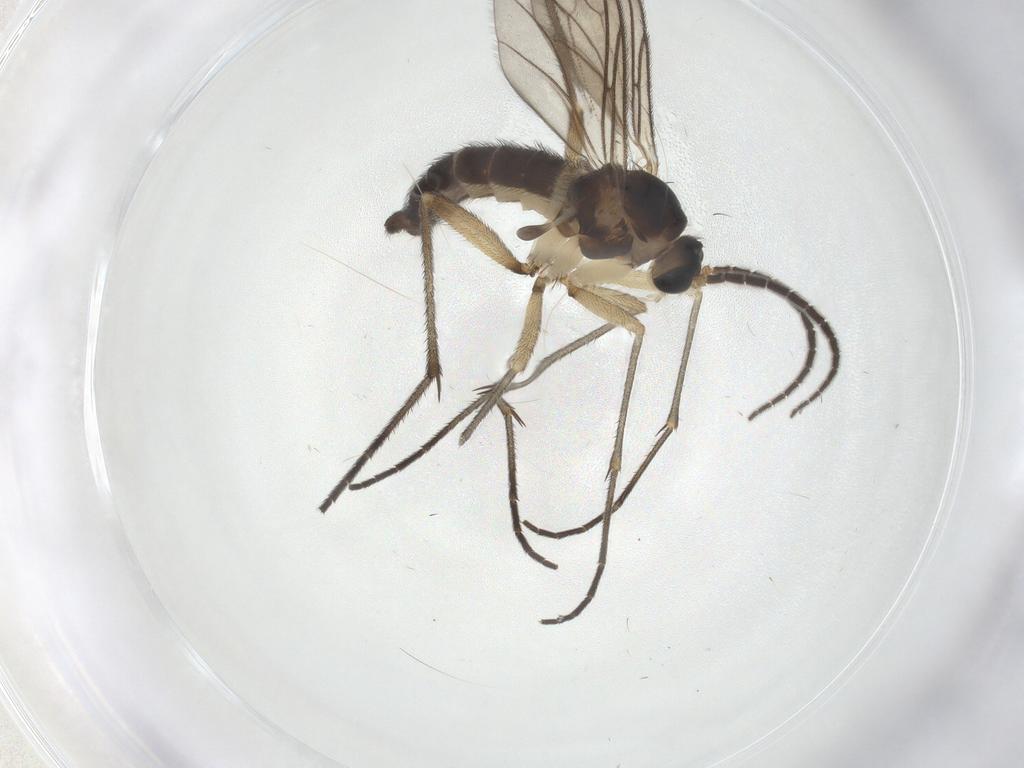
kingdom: Animalia
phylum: Arthropoda
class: Insecta
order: Diptera
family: Sciaridae
